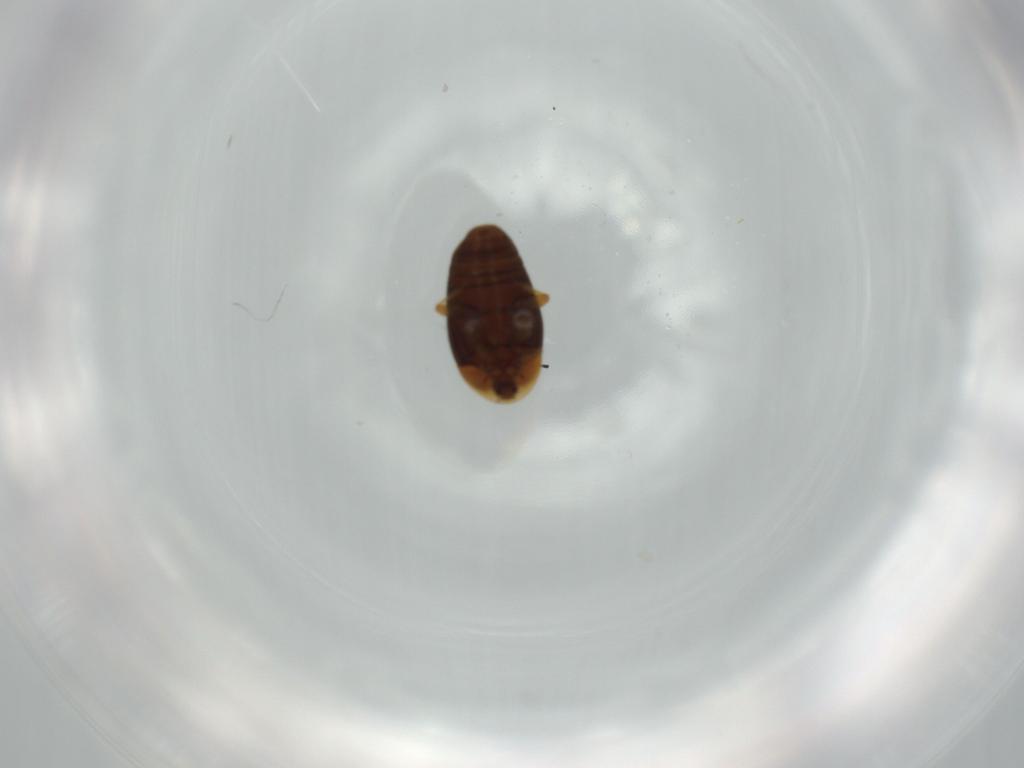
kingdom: Animalia
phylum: Arthropoda
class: Insecta
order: Coleoptera
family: Corylophidae
